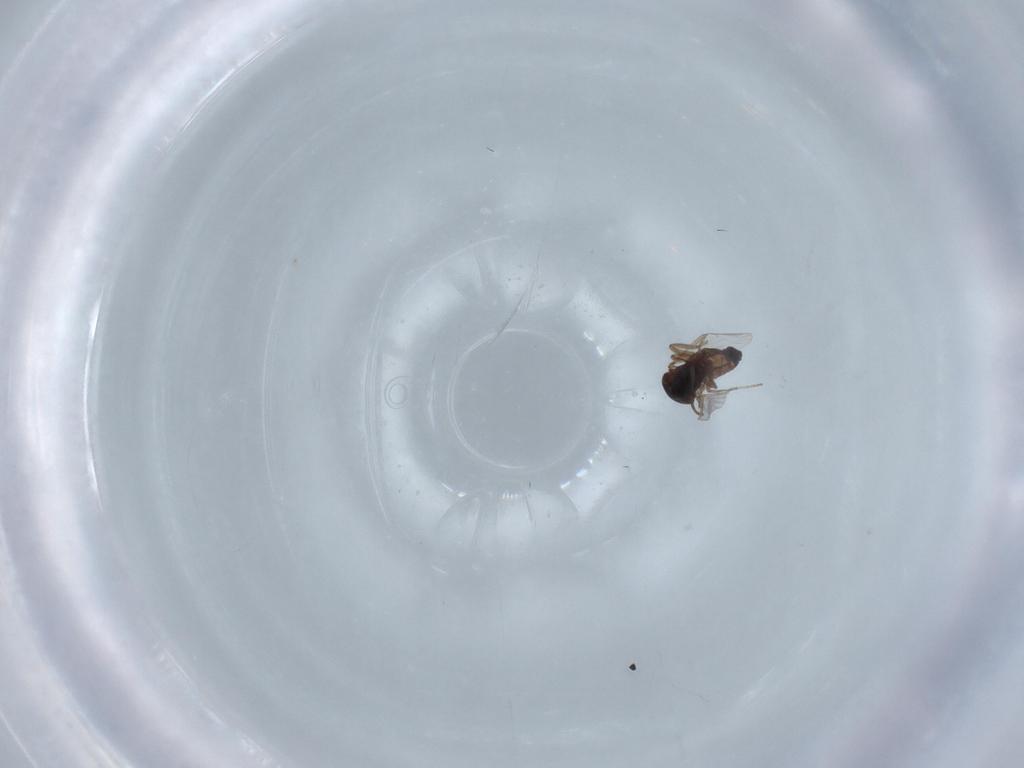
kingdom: Animalia
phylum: Arthropoda
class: Insecta
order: Diptera
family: Ceratopogonidae
